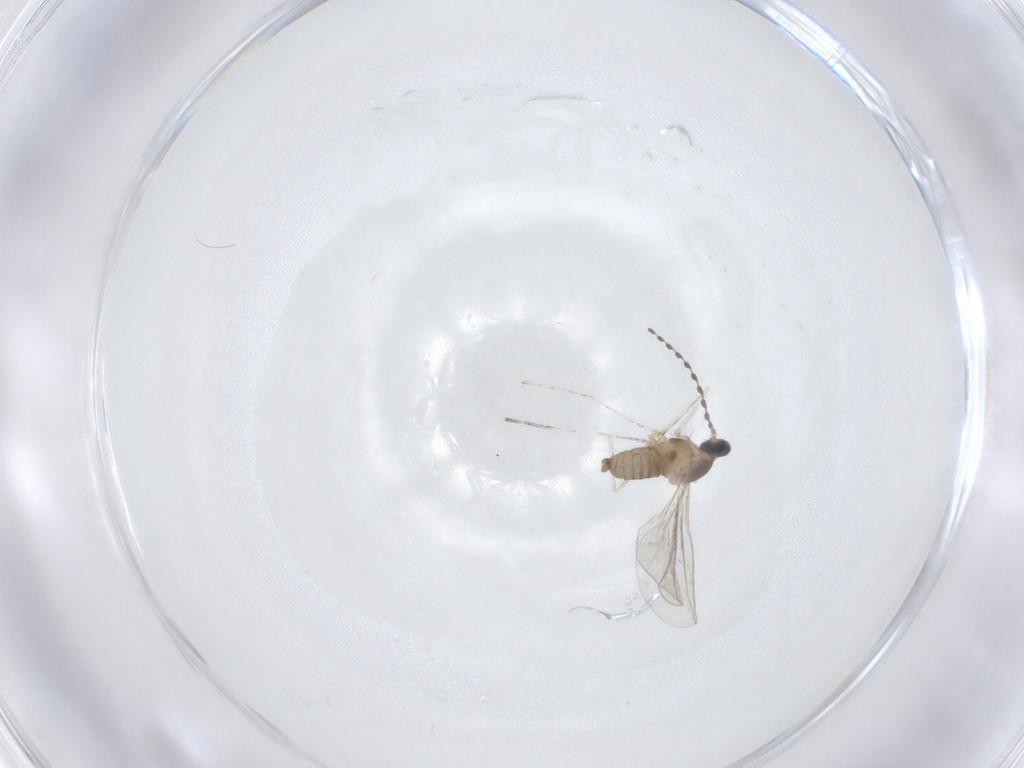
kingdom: Animalia
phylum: Arthropoda
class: Insecta
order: Diptera
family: Cecidomyiidae
